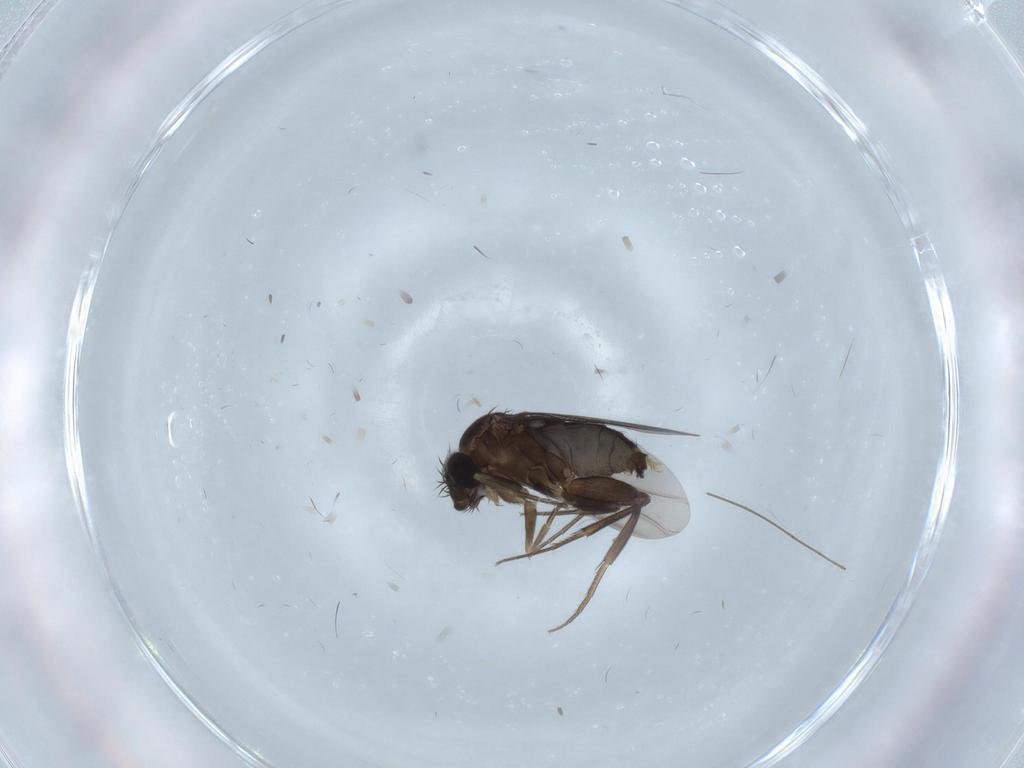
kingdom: Animalia
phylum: Arthropoda
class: Insecta
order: Diptera
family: Phoridae
